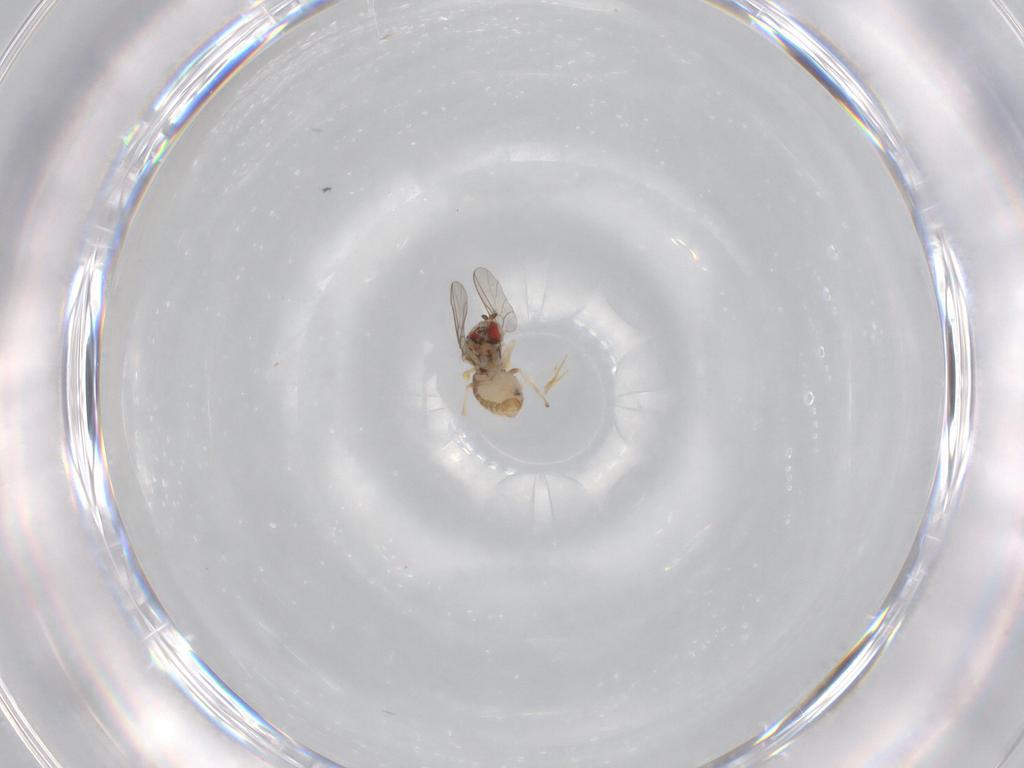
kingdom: Animalia
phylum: Arthropoda
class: Insecta
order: Diptera
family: Bombyliidae
